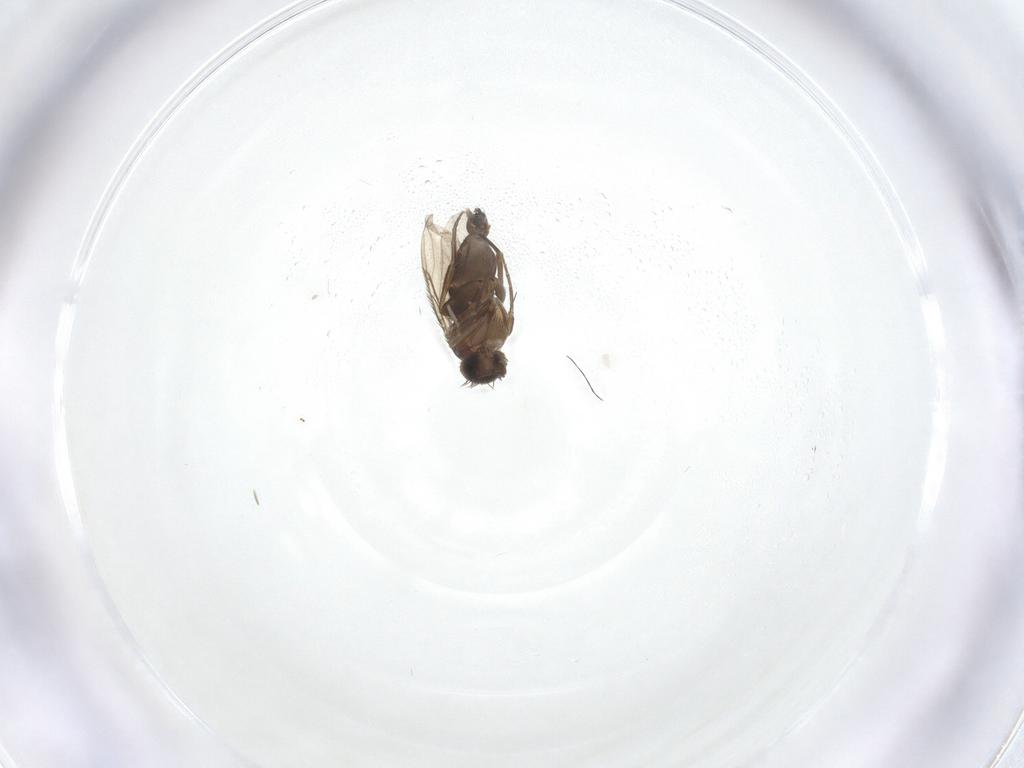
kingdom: Animalia
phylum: Arthropoda
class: Insecta
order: Diptera
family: Phoridae
